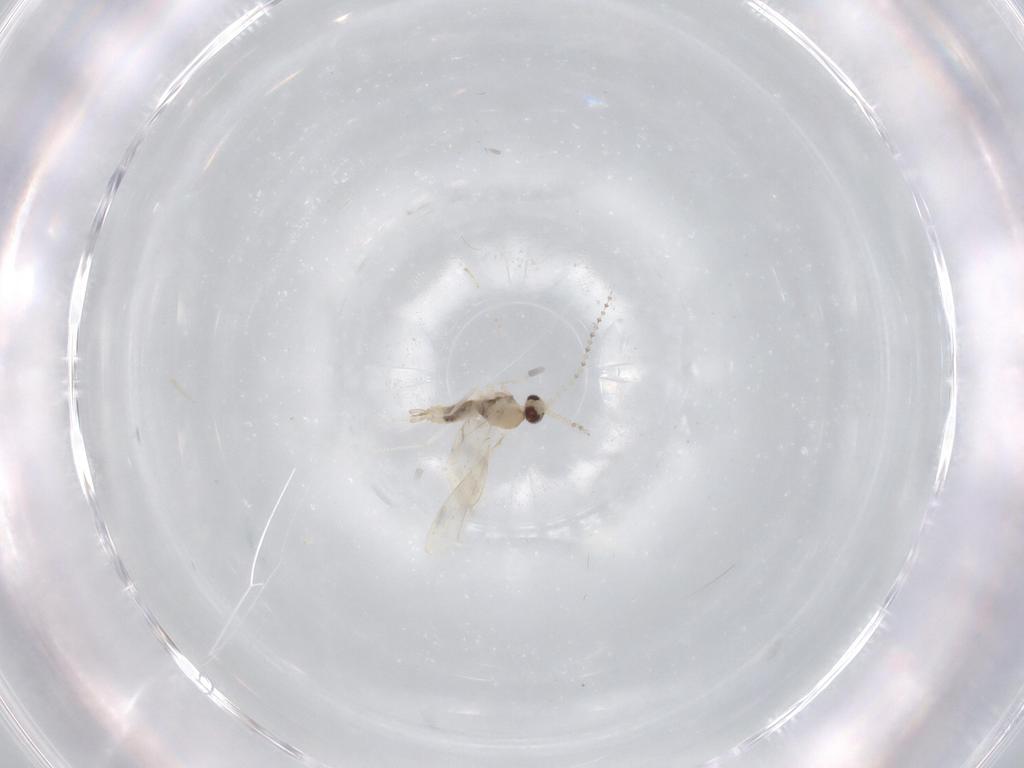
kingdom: Animalia
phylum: Arthropoda
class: Insecta
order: Diptera
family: Cecidomyiidae
